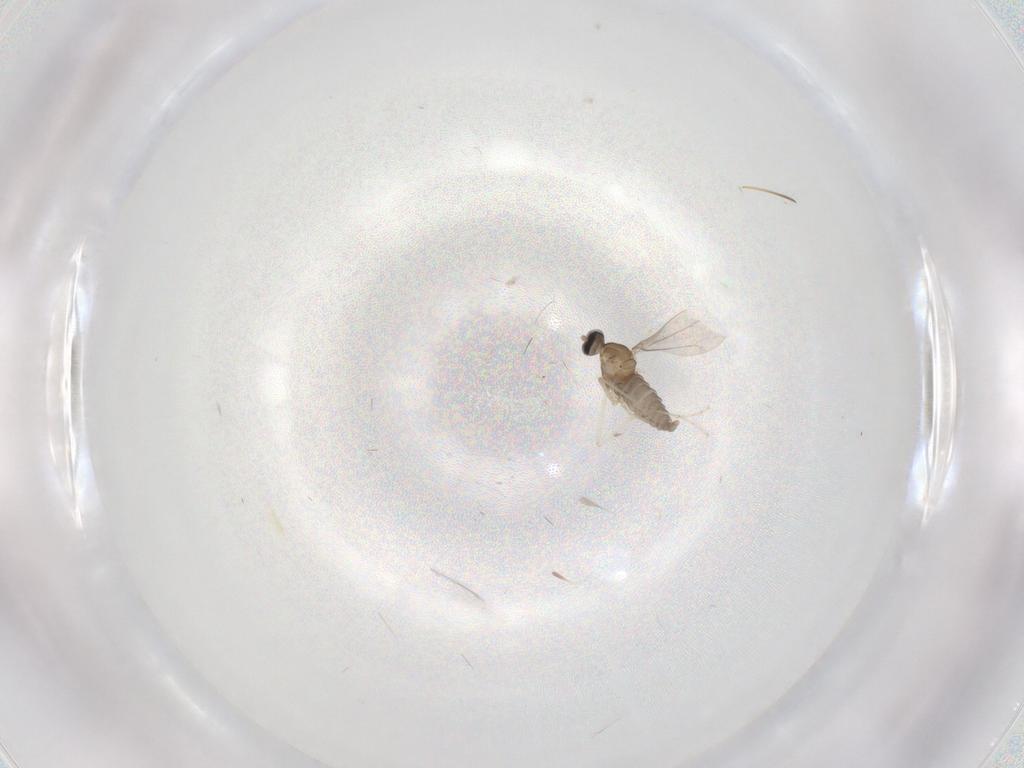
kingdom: Animalia
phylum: Arthropoda
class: Insecta
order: Diptera
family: Cecidomyiidae
